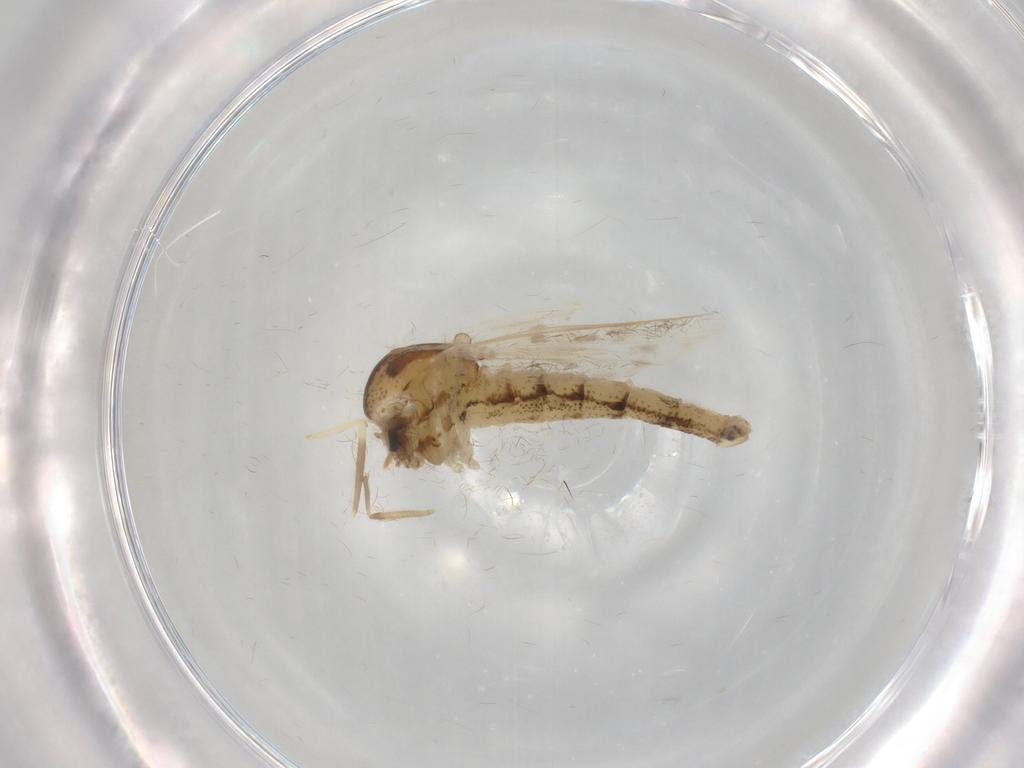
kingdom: Animalia
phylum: Arthropoda
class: Insecta
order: Diptera
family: Chaoboridae
